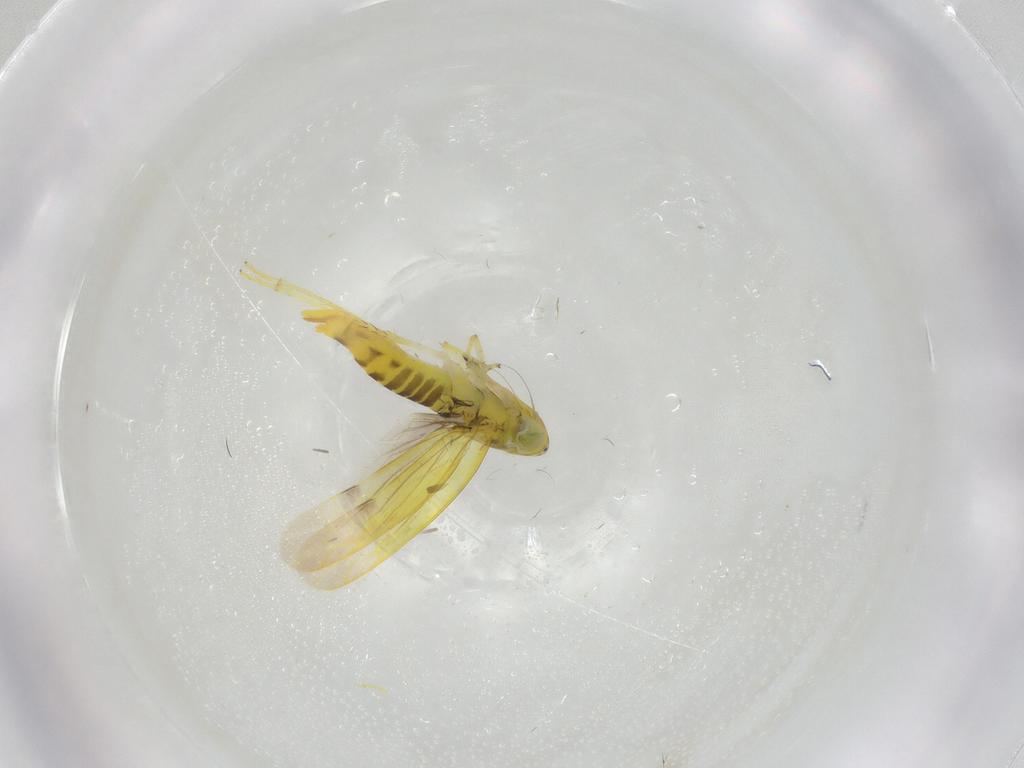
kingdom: Animalia
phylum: Arthropoda
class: Insecta
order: Hemiptera
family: Cicadellidae
